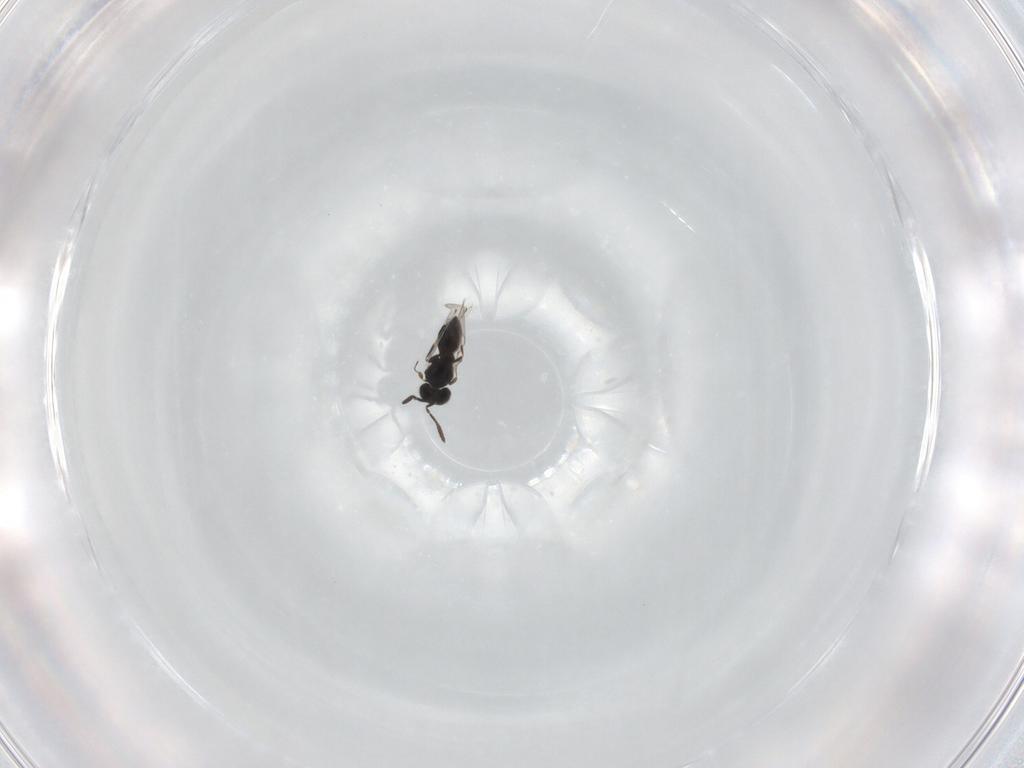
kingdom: Animalia
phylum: Arthropoda
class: Insecta
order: Hymenoptera
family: Scelionidae
